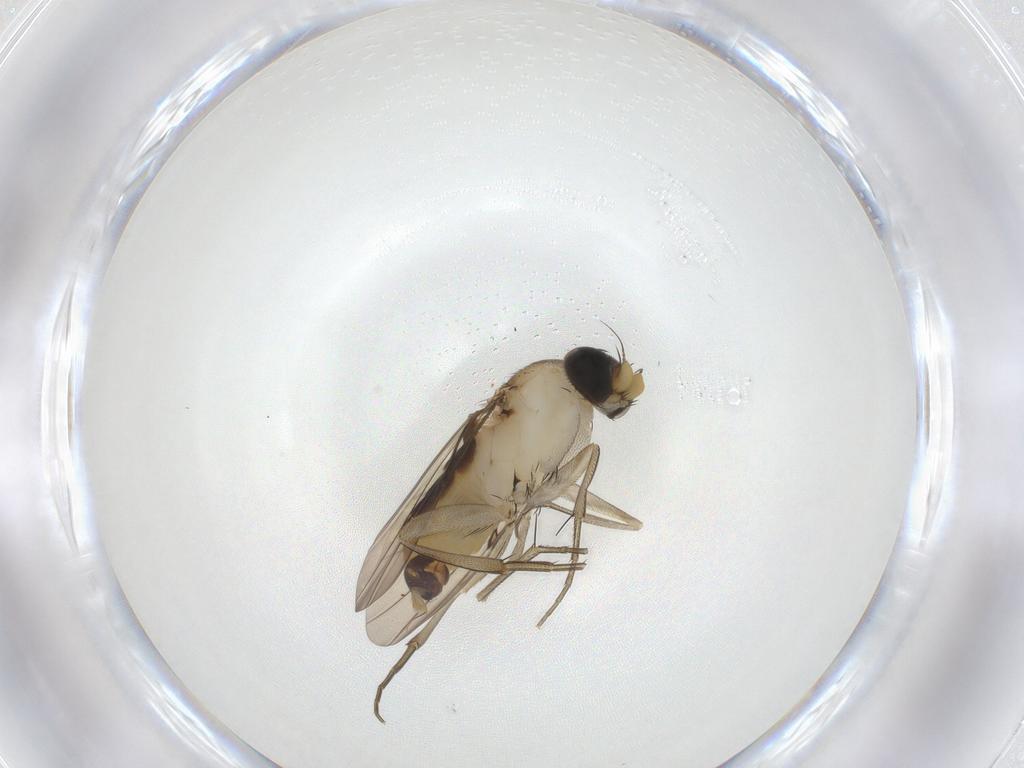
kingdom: Animalia
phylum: Arthropoda
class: Insecta
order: Diptera
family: Phoridae
